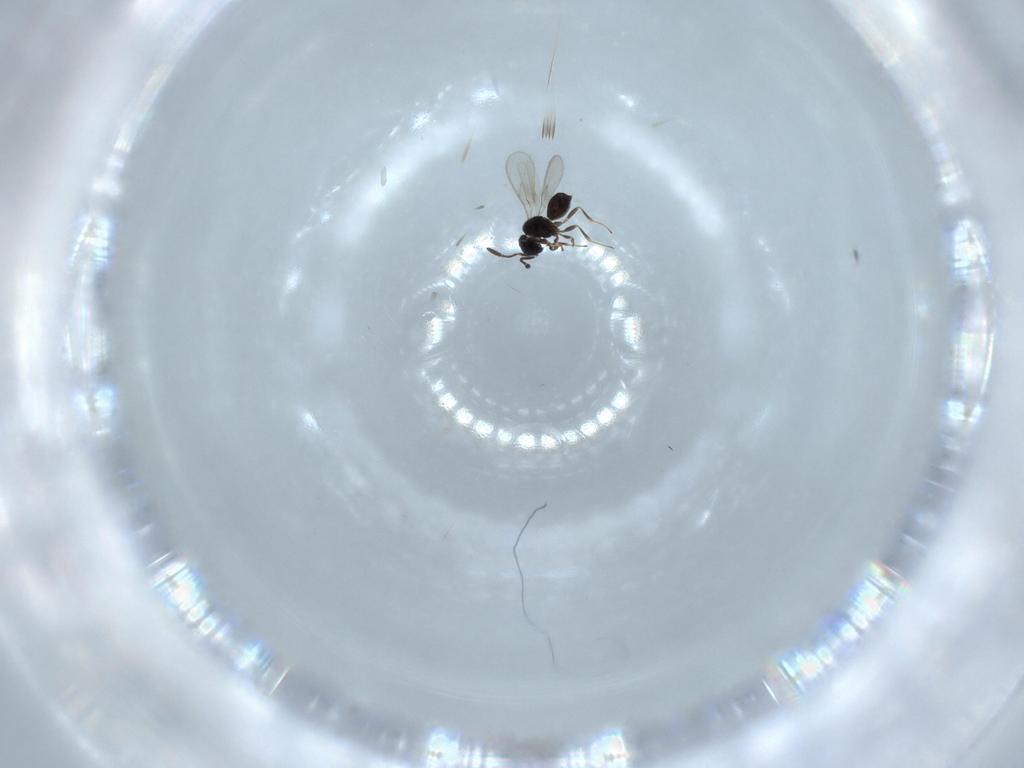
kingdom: Animalia
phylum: Arthropoda
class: Insecta
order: Hymenoptera
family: Scelionidae
